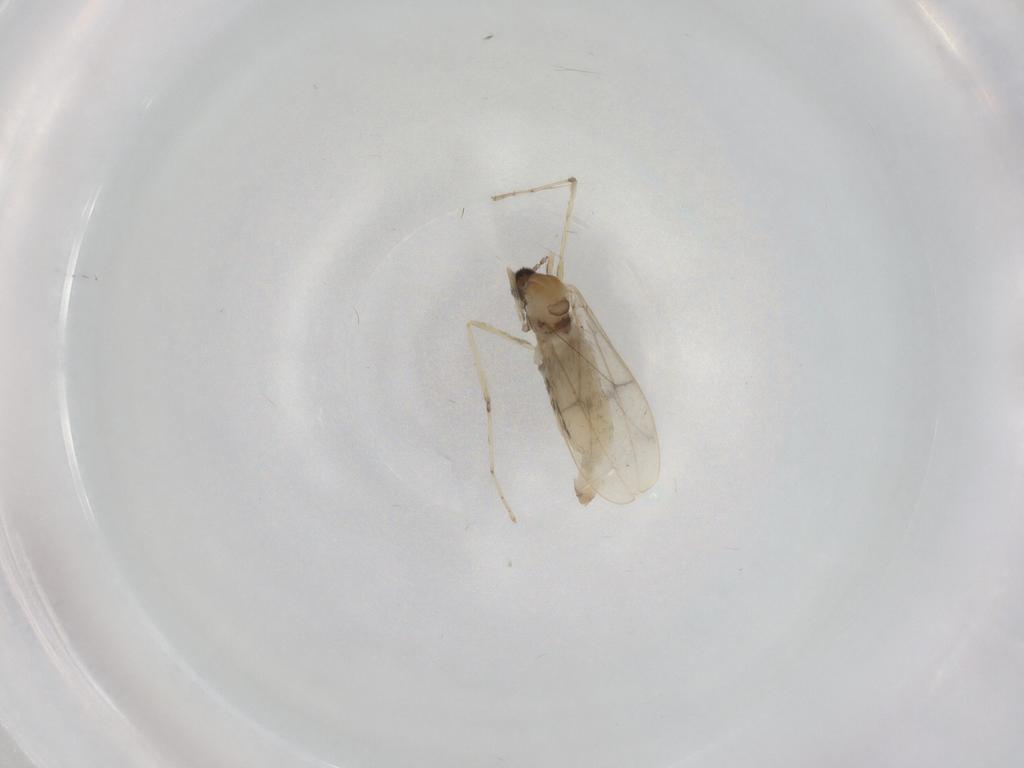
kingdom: Animalia
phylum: Arthropoda
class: Insecta
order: Diptera
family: Cecidomyiidae
